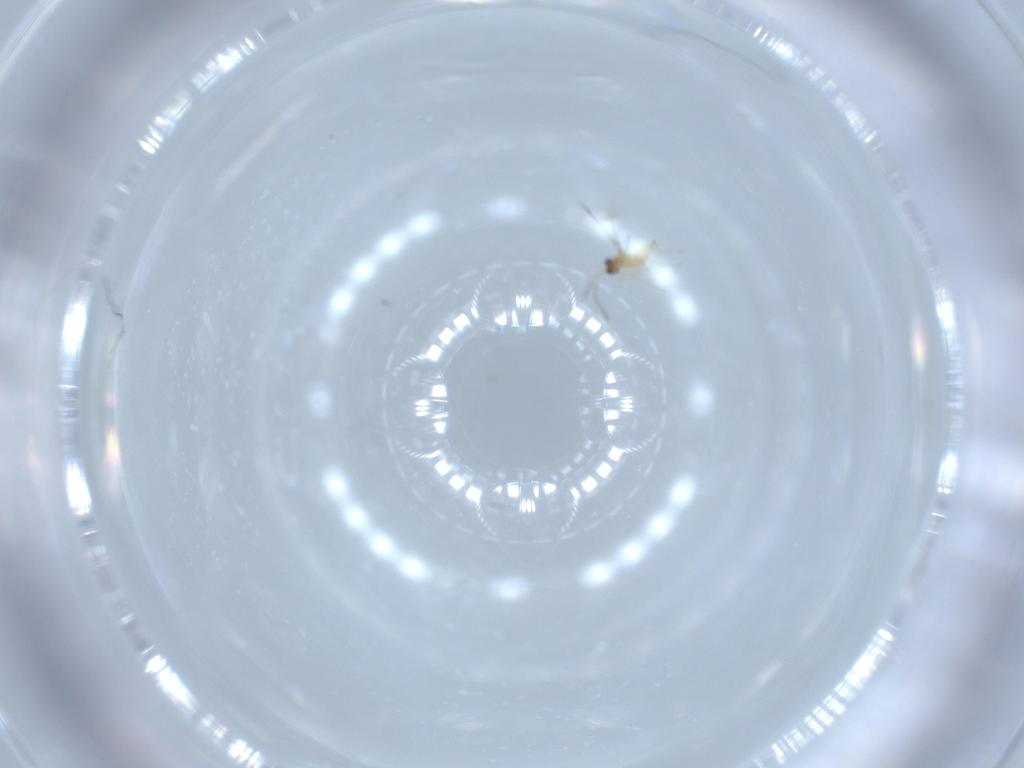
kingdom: Animalia
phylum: Arthropoda
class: Insecta
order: Hymenoptera
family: Mymaridae
